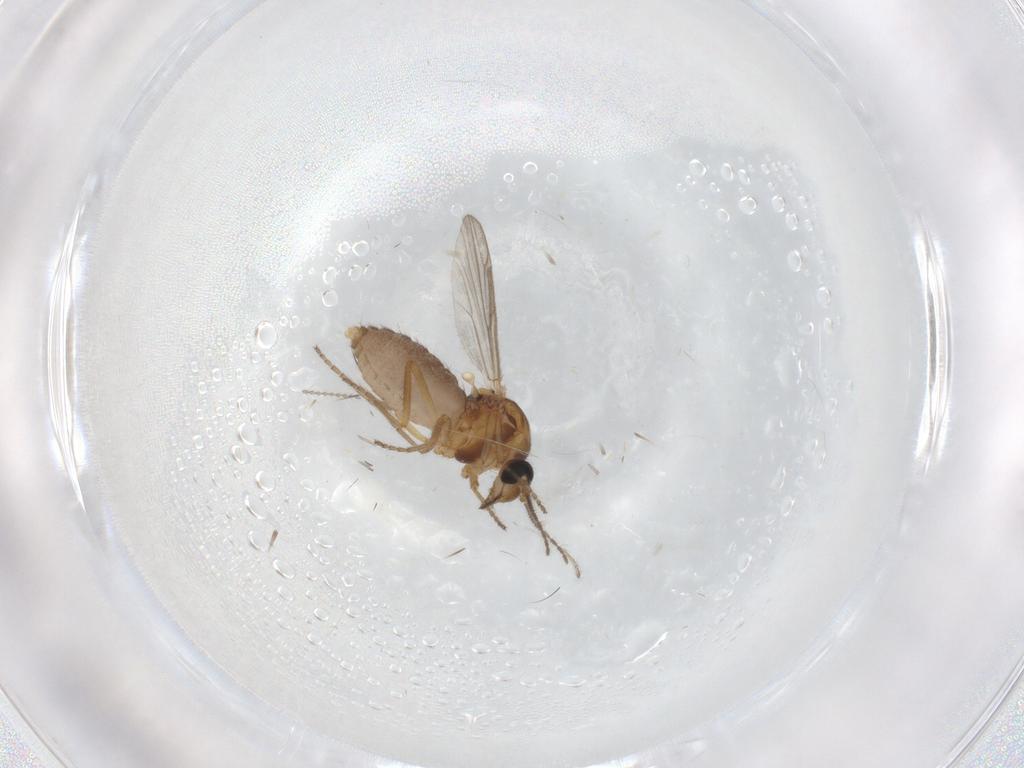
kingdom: Animalia
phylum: Arthropoda
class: Insecta
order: Diptera
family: Ceratopogonidae
